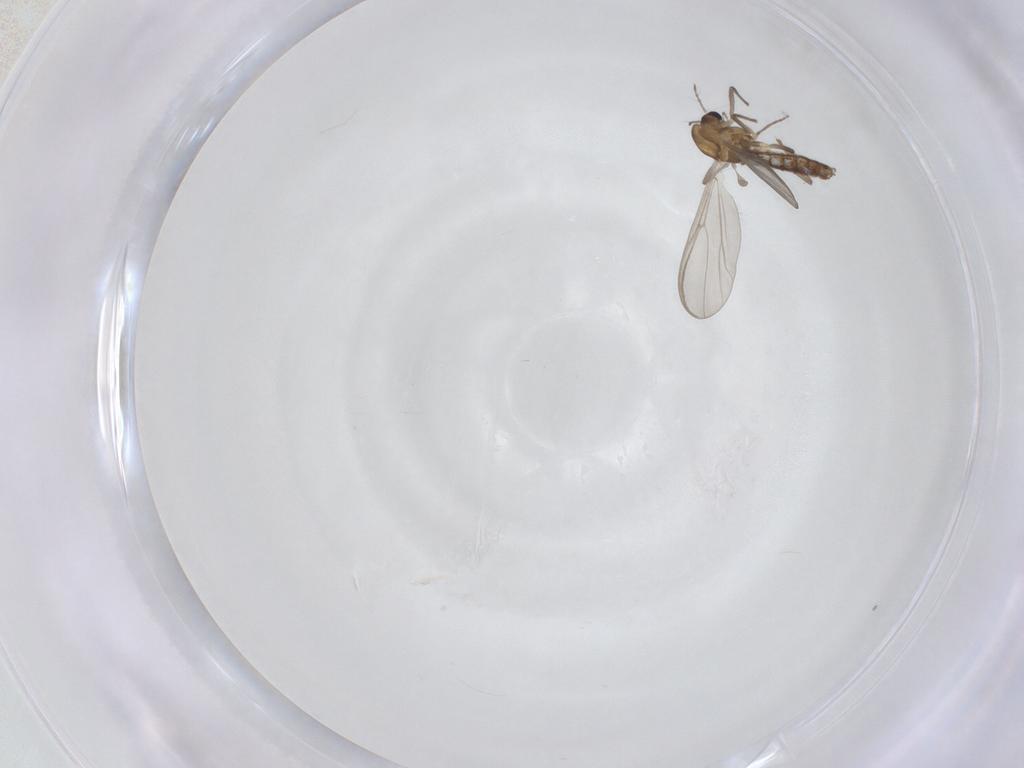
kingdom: Animalia
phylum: Arthropoda
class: Insecta
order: Diptera
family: Chironomidae
